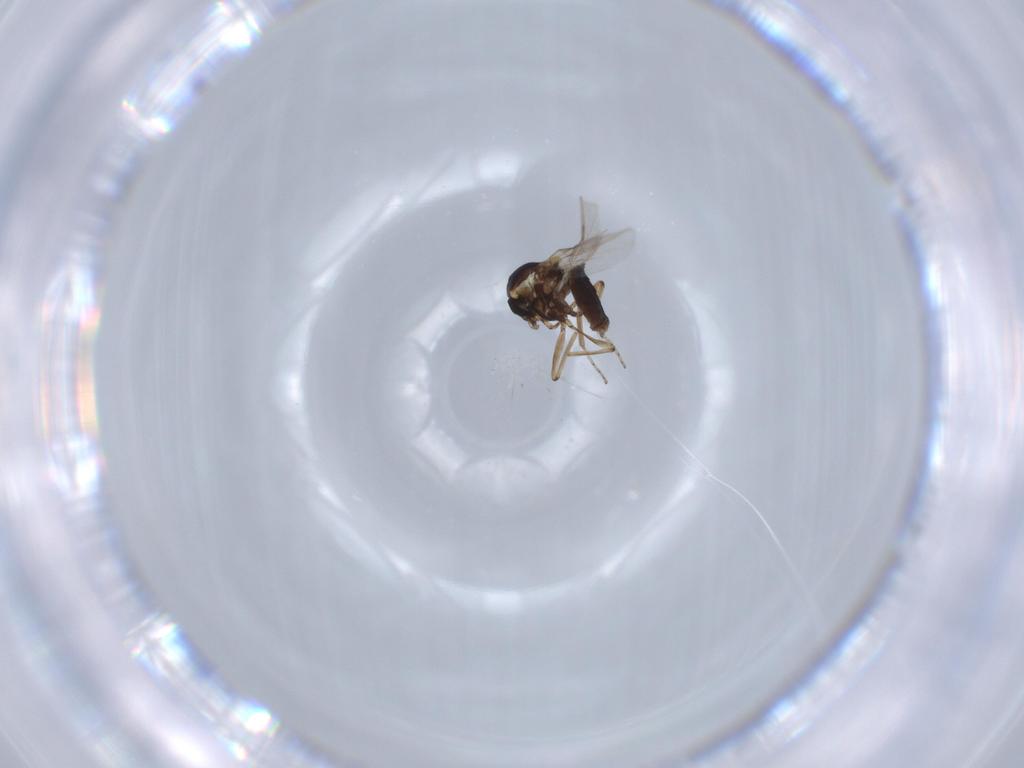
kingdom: Animalia
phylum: Arthropoda
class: Insecta
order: Diptera
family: Ceratopogonidae
